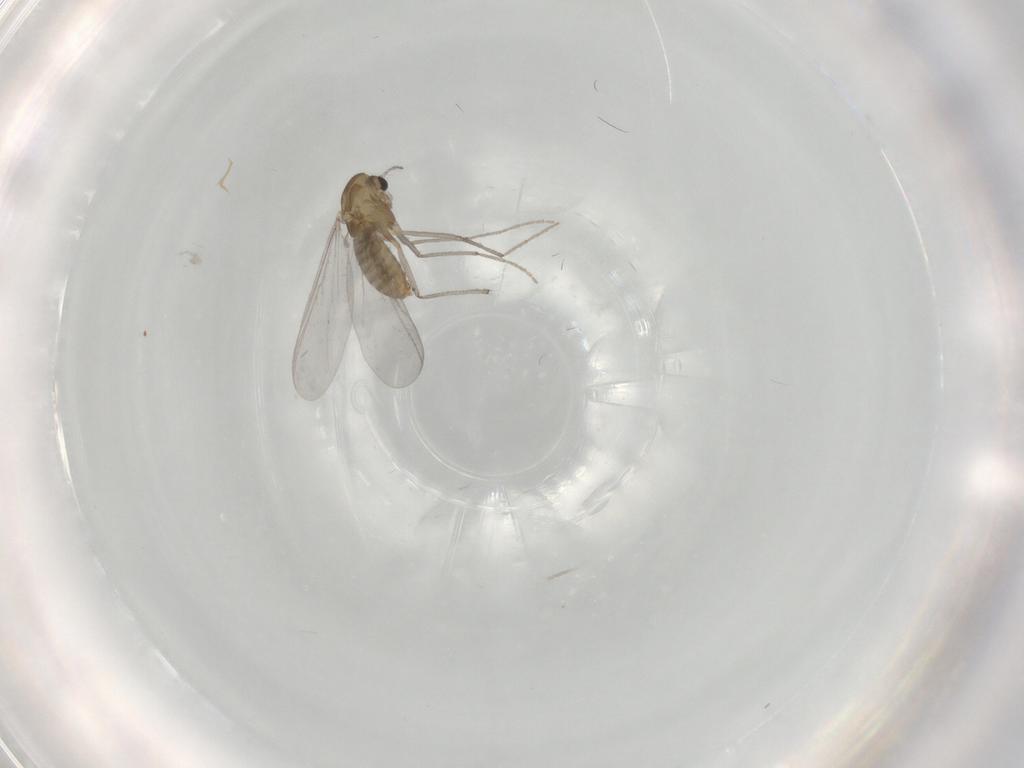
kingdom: Animalia
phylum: Arthropoda
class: Insecta
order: Diptera
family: Chironomidae
